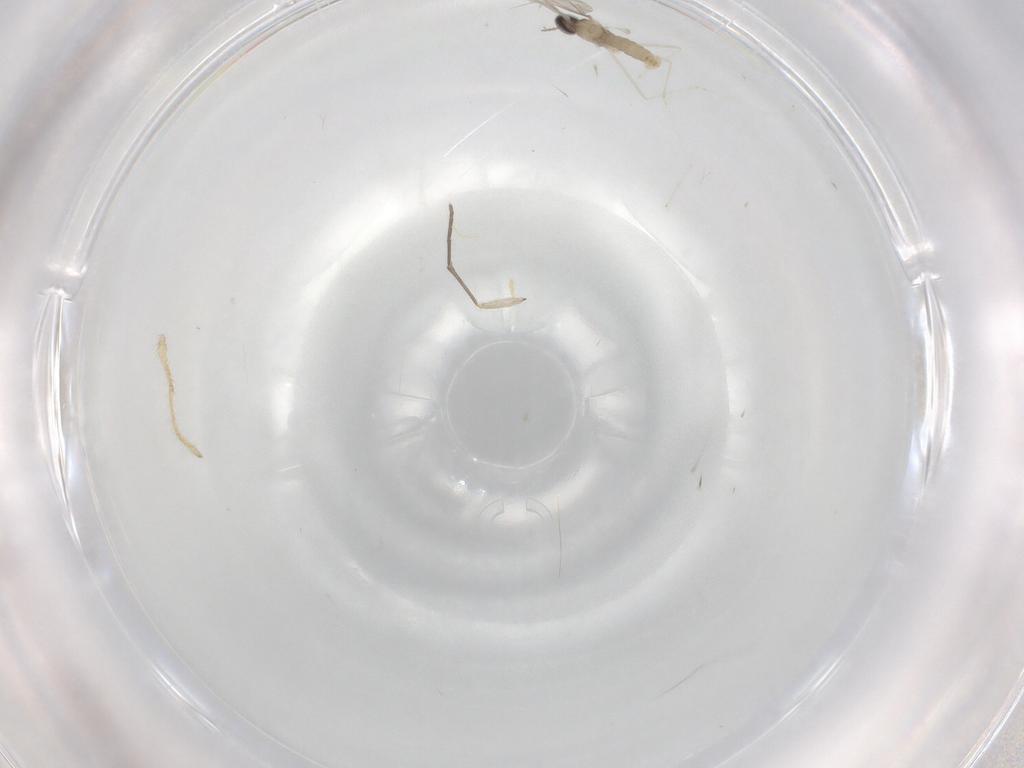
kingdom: Animalia
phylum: Arthropoda
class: Insecta
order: Diptera
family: Cecidomyiidae
